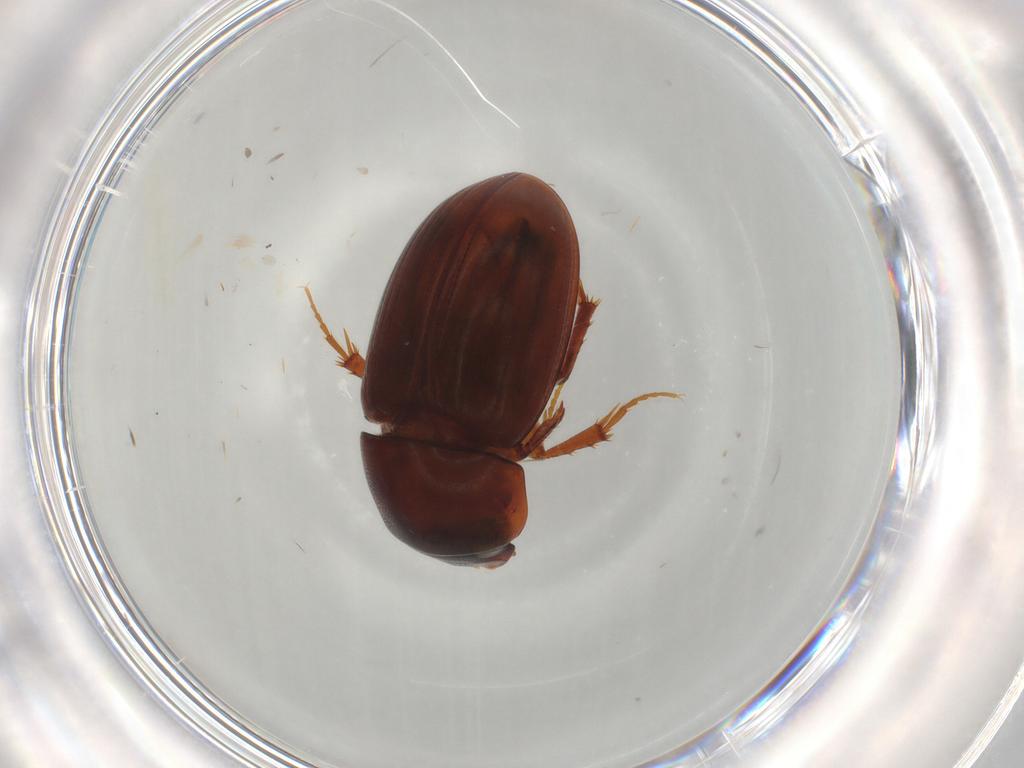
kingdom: Animalia
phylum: Arthropoda
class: Insecta
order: Coleoptera
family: Scarabaeidae
